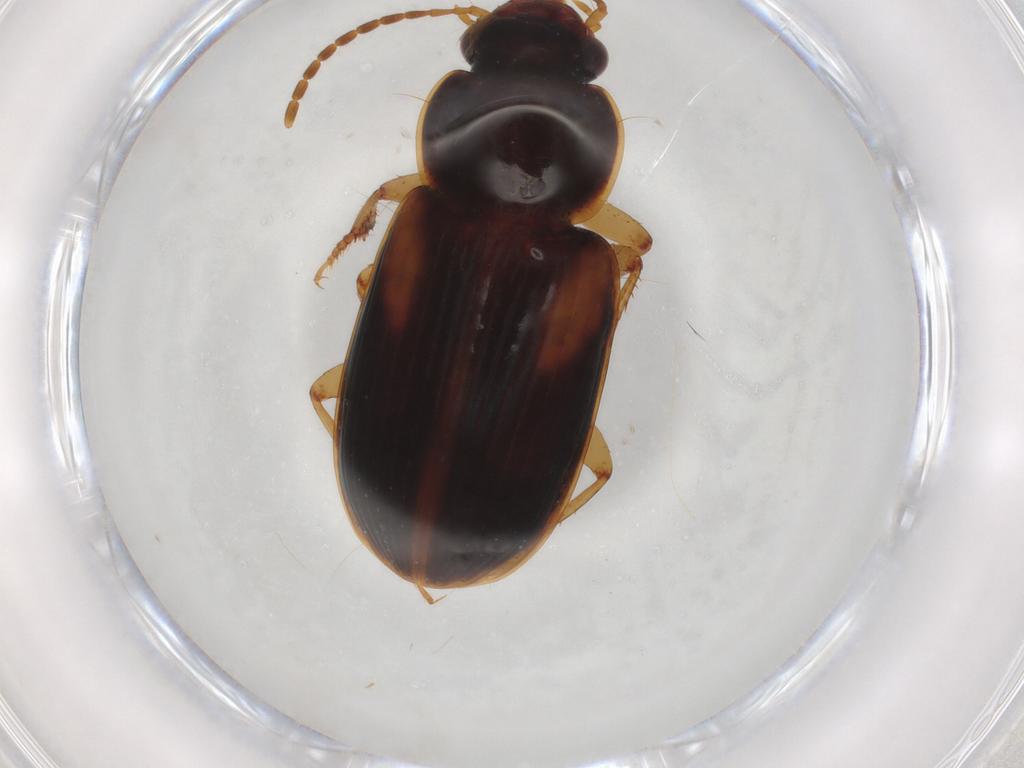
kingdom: Animalia
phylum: Arthropoda
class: Insecta
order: Coleoptera
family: Carabidae
